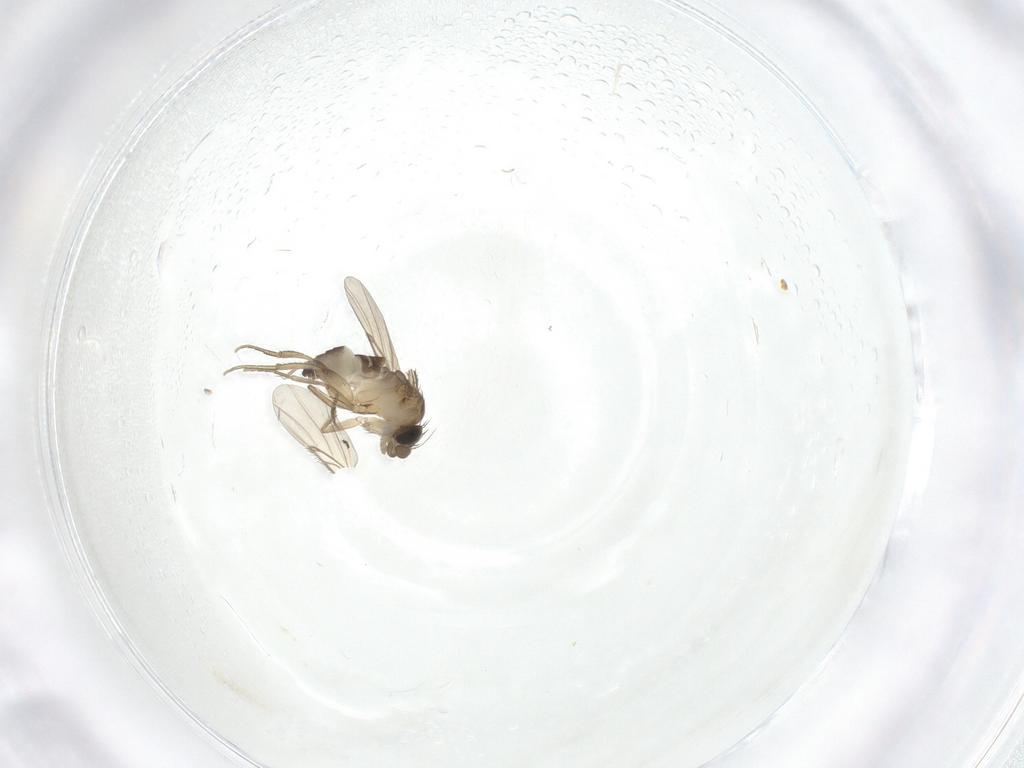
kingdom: Animalia
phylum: Arthropoda
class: Insecta
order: Diptera
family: Phoridae
